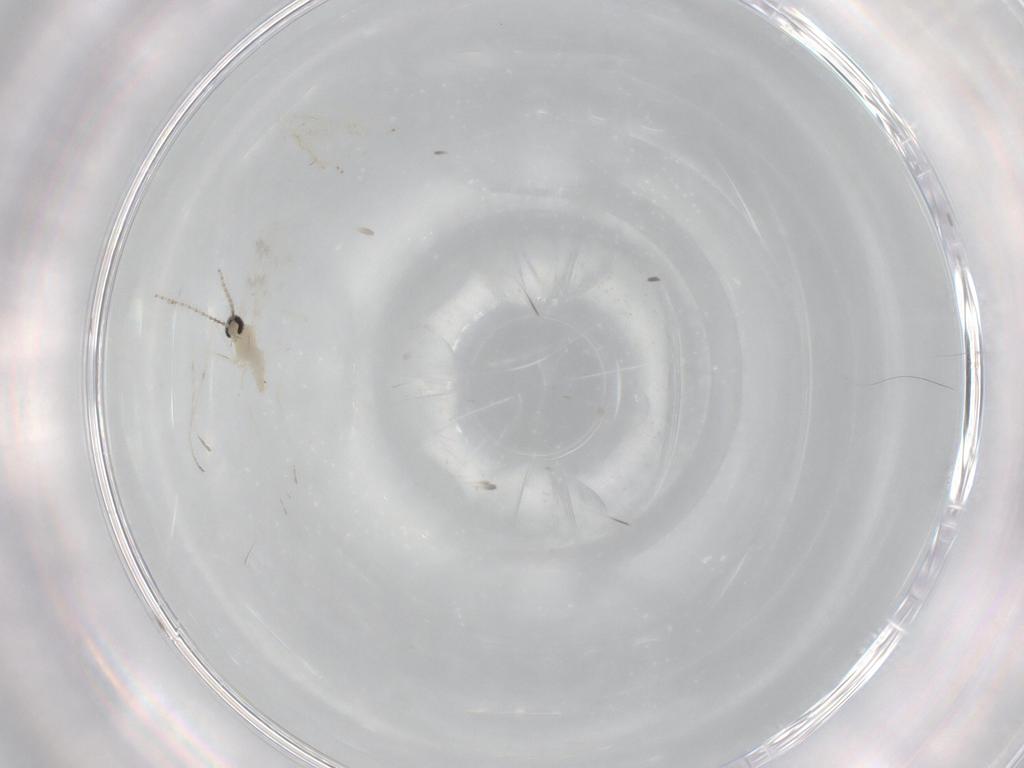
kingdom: Animalia
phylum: Arthropoda
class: Insecta
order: Diptera
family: Cecidomyiidae
